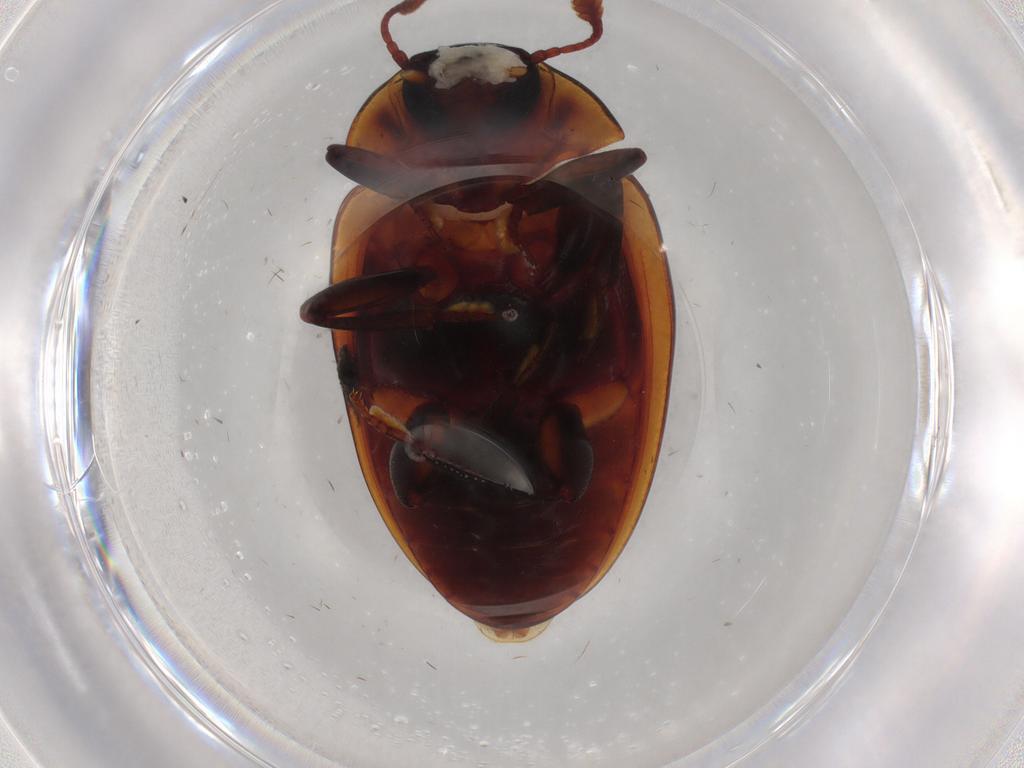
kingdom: Animalia
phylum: Arthropoda
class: Insecta
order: Coleoptera
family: Zopheridae
